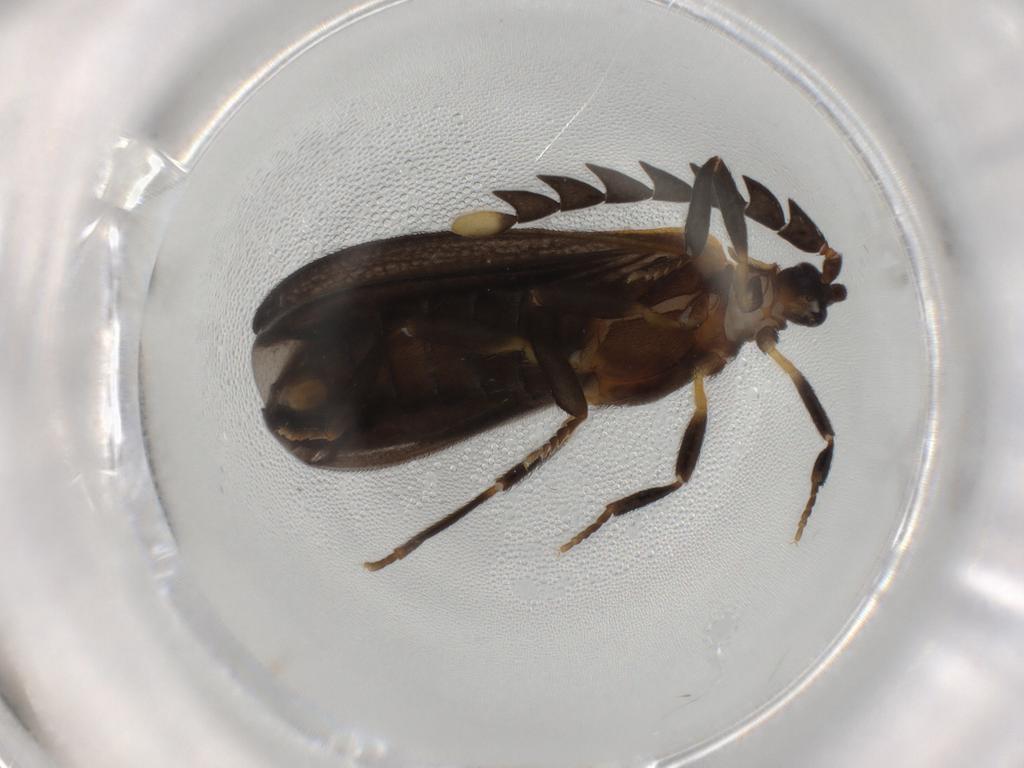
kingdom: Animalia
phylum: Arthropoda
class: Insecta
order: Coleoptera
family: Lycidae
